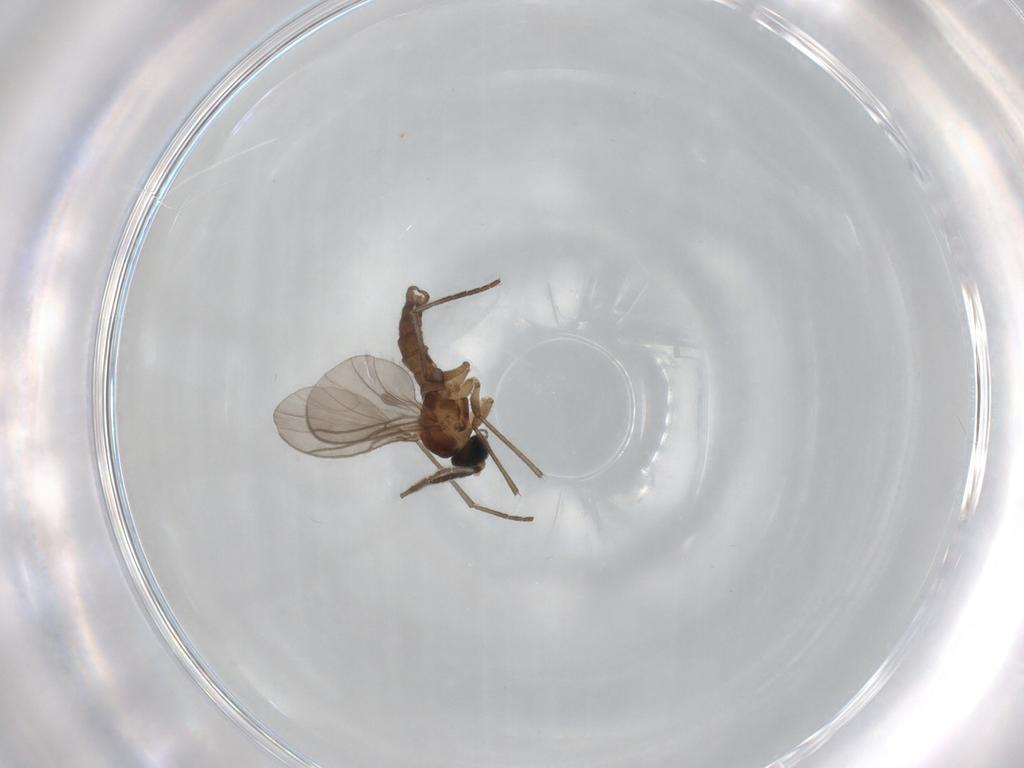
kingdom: Animalia
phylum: Arthropoda
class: Insecta
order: Diptera
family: Sciaridae
